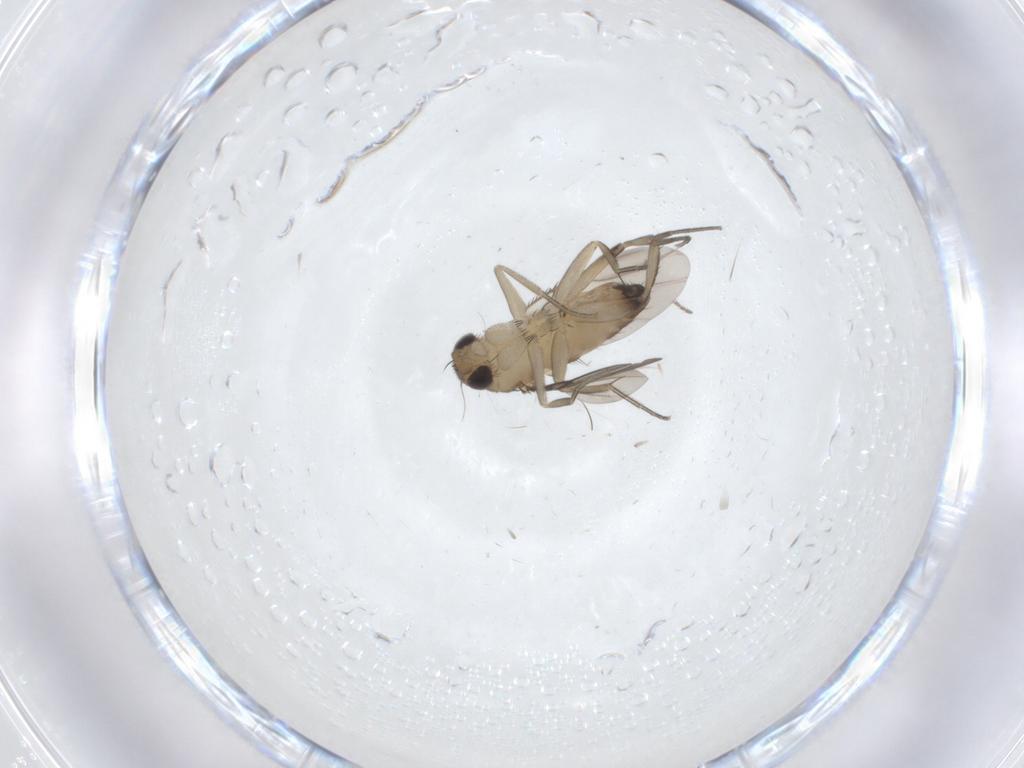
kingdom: Animalia
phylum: Arthropoda
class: Insecta
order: Diptera
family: Phoridae
